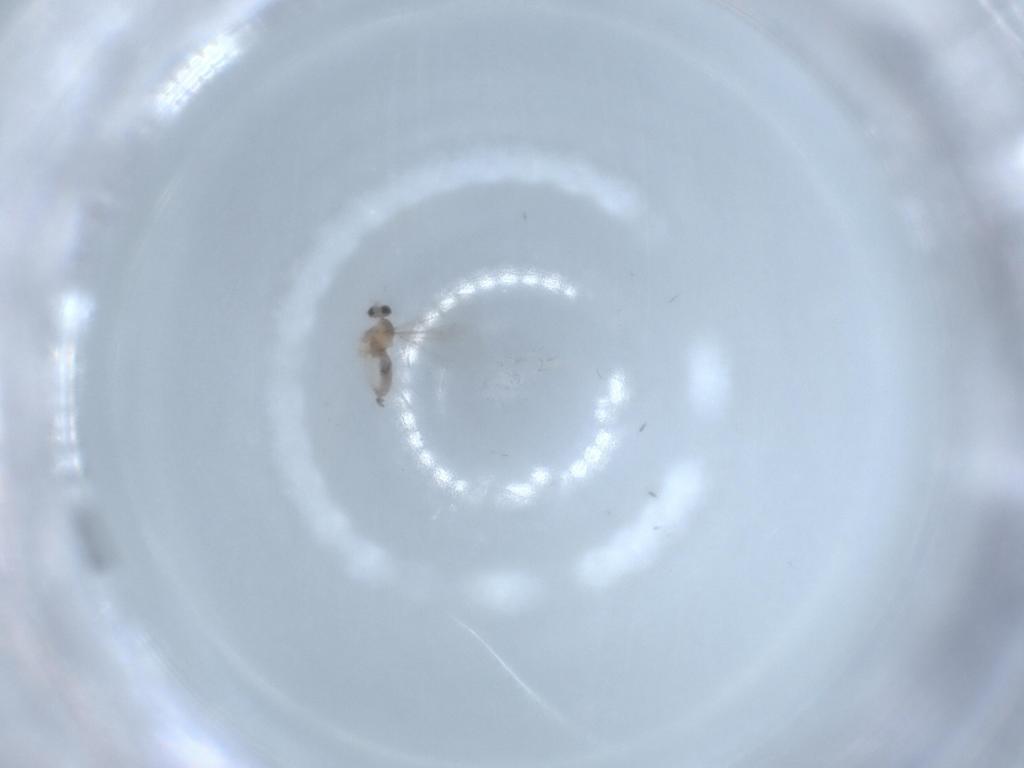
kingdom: Animalia
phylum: Arthropoda
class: Insecta
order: Diptera
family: Cecidomyiidae
